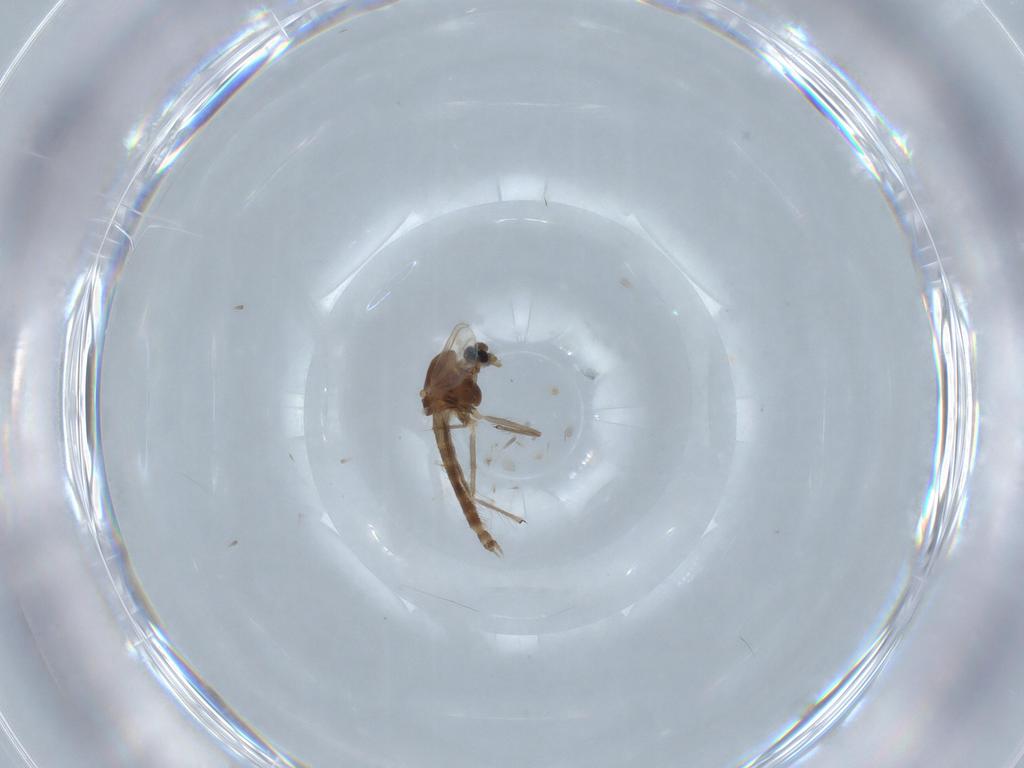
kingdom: Animalia
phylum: Arthropoda
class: Insecta
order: Diptera
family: Chironomidae
